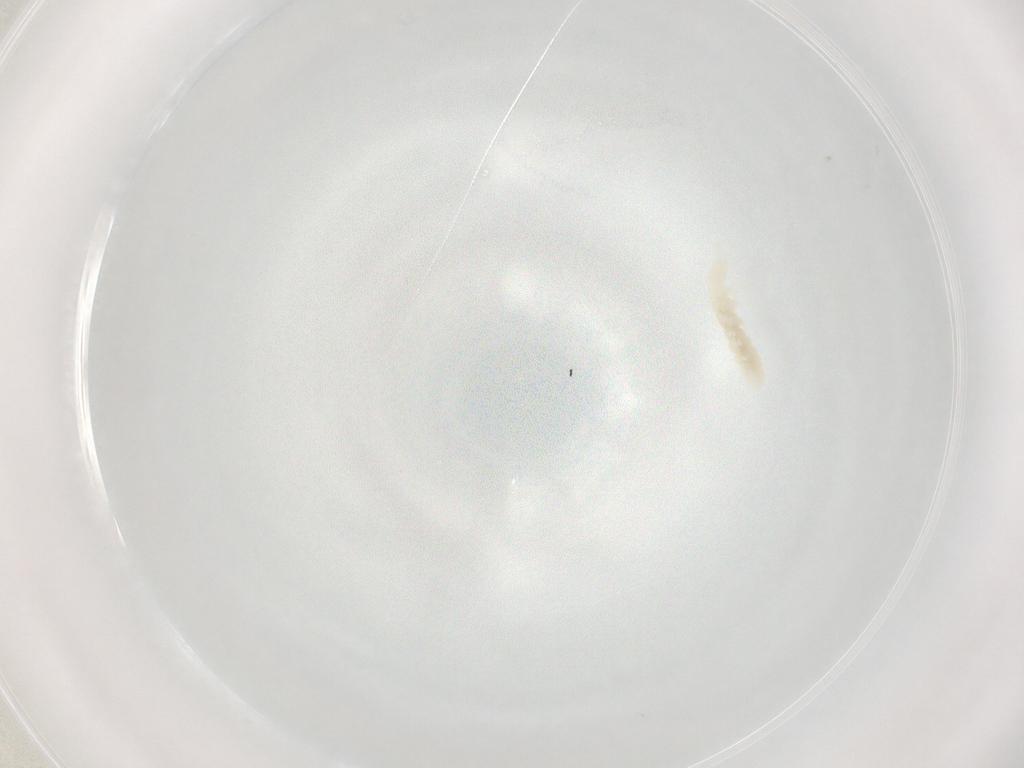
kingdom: Animalia
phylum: Arthropoda
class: Collembola
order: Poduromorpha
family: Onychiuridae
